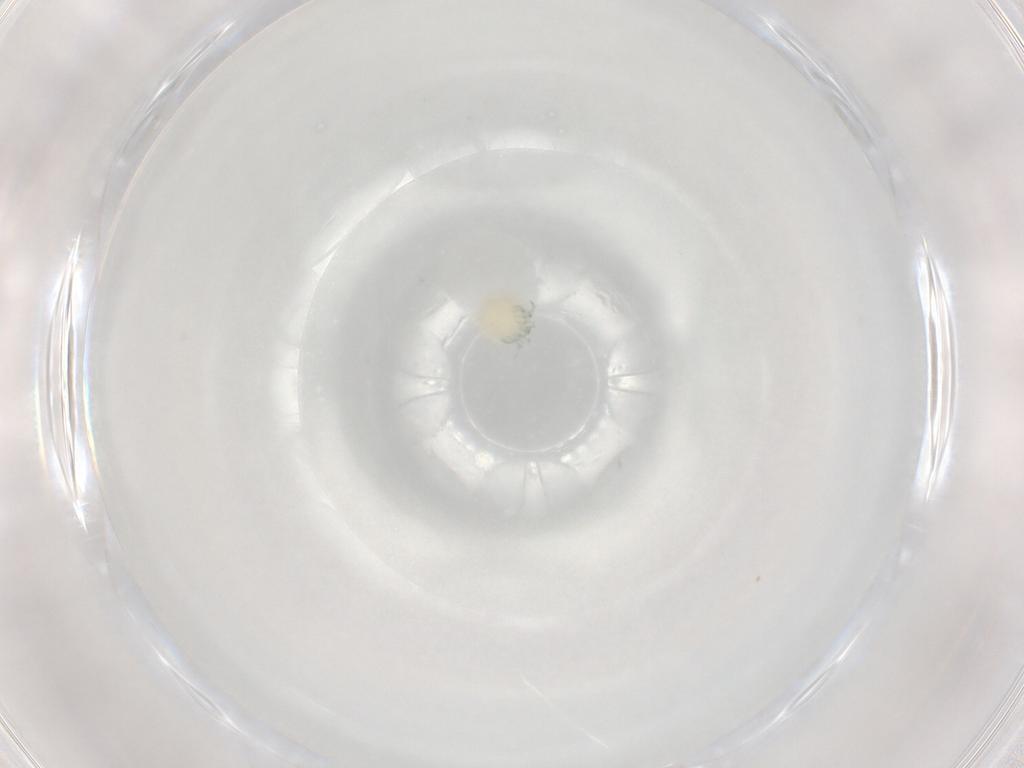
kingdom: Animalia
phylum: Arthropoda
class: Arachnida
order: Trombidiformes
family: Arrenuridae
